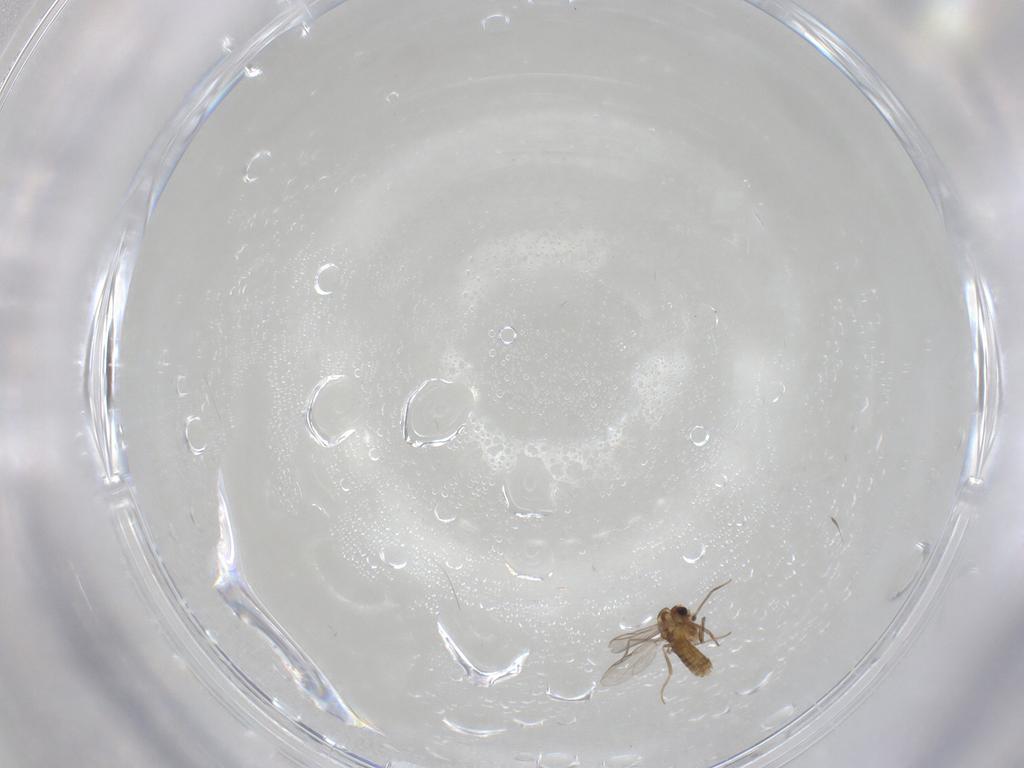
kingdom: Animalia
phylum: Arthropoda
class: Insecta
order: Diptera
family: Chironomidae
